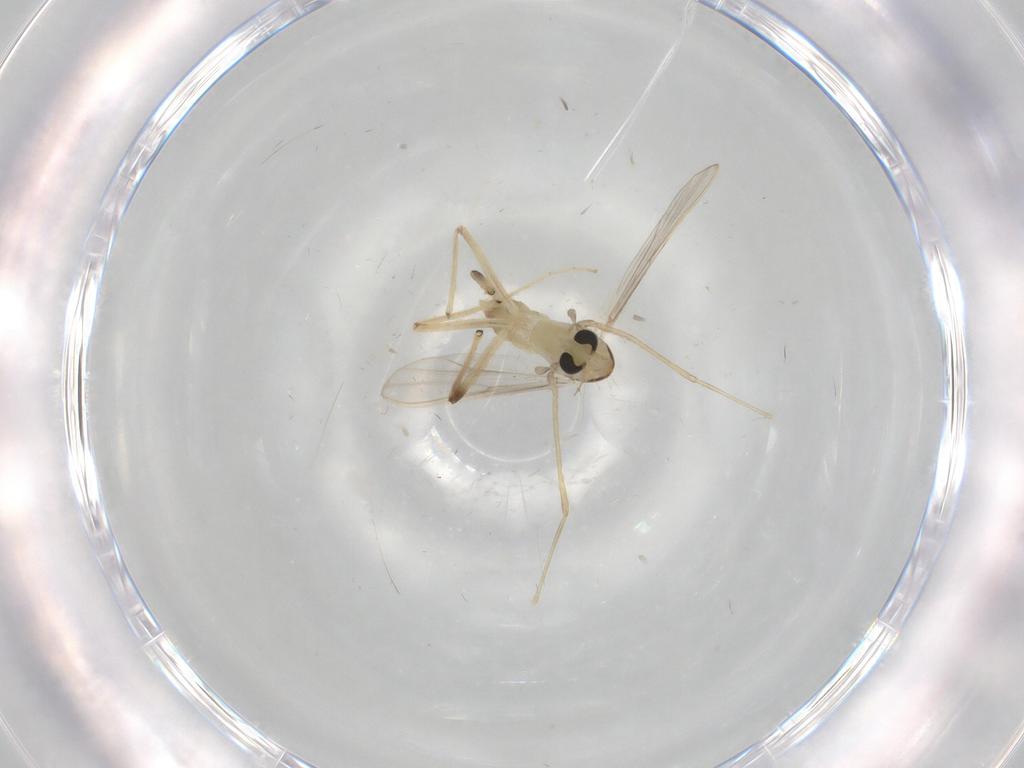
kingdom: Animalia
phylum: Arthropoda
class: Insecta
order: Diptera
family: Chironomidae
